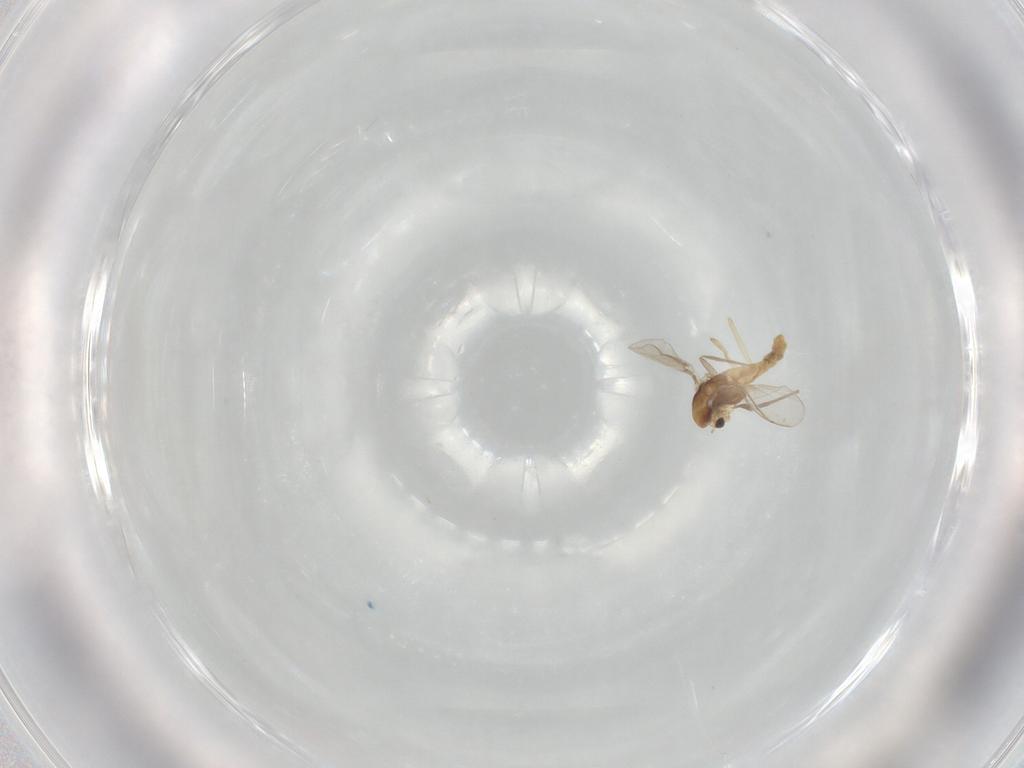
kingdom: Animalia
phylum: Arthropoda
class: Insecta
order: Diptera
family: Chironomidae
